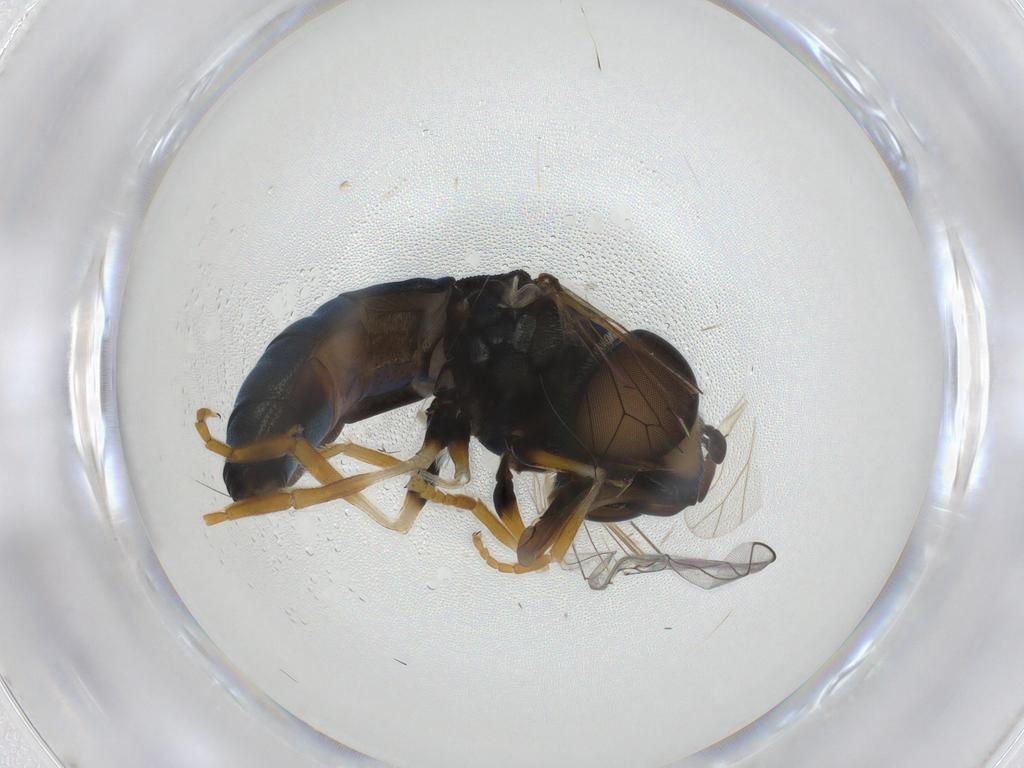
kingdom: Animalia
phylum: Arthropoda
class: Insecta
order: Diptera
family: Syrphidae
